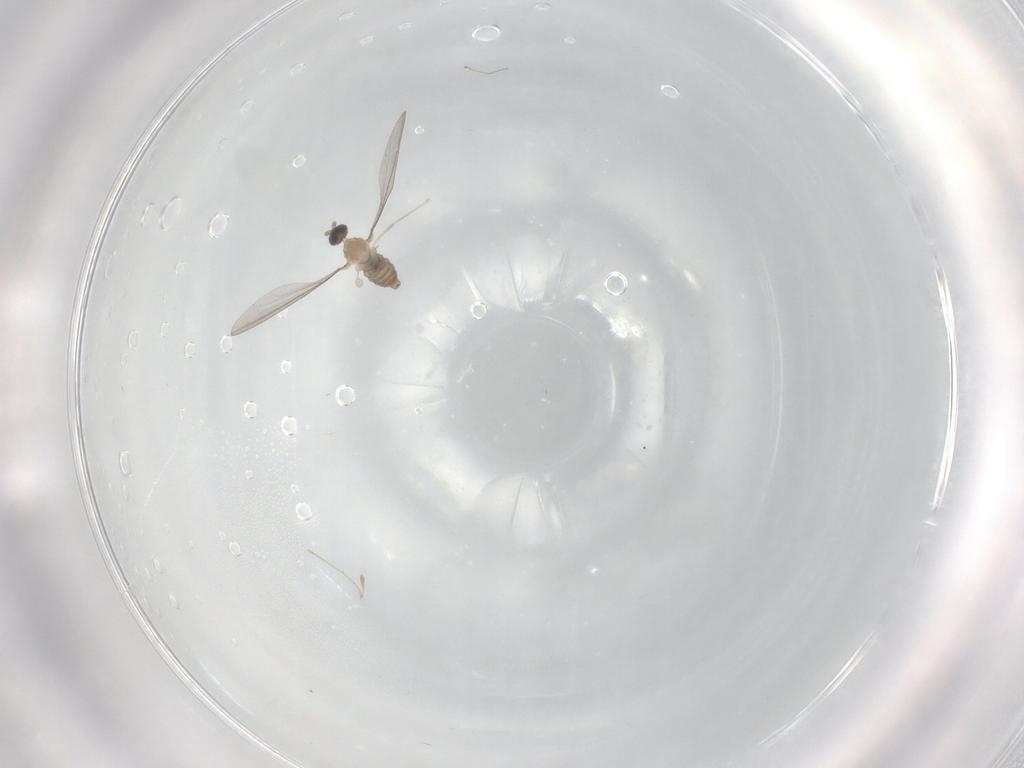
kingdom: Animalia
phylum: Arthropoda
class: Insecta
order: Diptera
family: Cecidomyiidae
